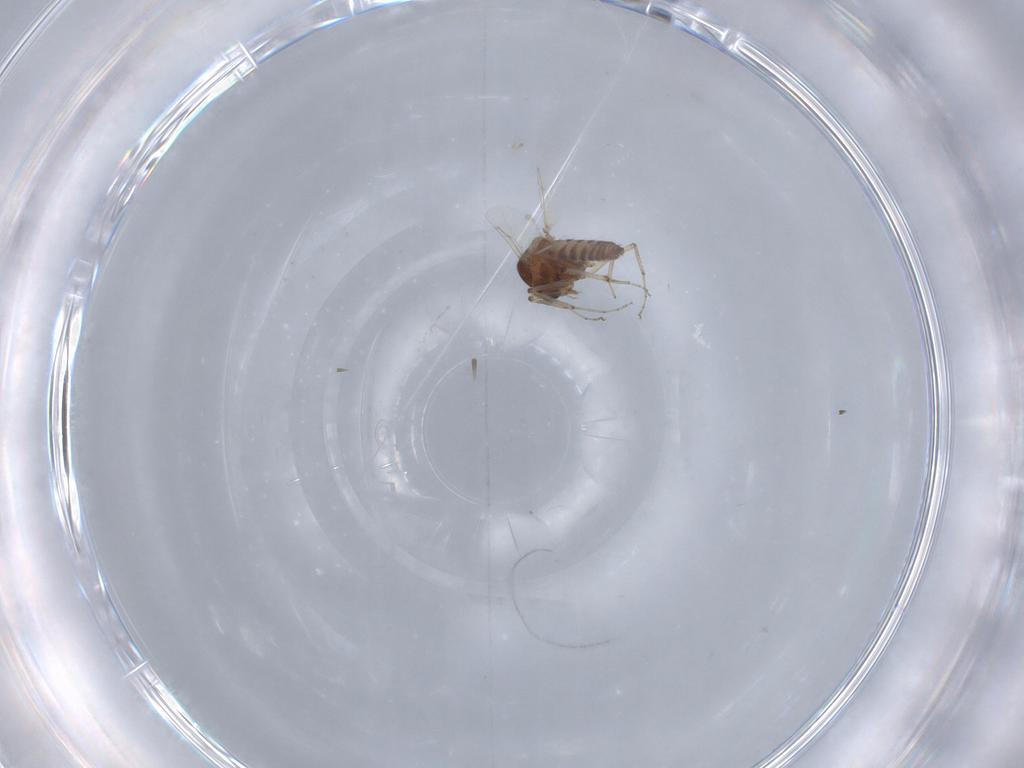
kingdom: Animalia
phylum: Arthropoda
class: Insecta
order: Diptera
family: Ceratopogonidae
